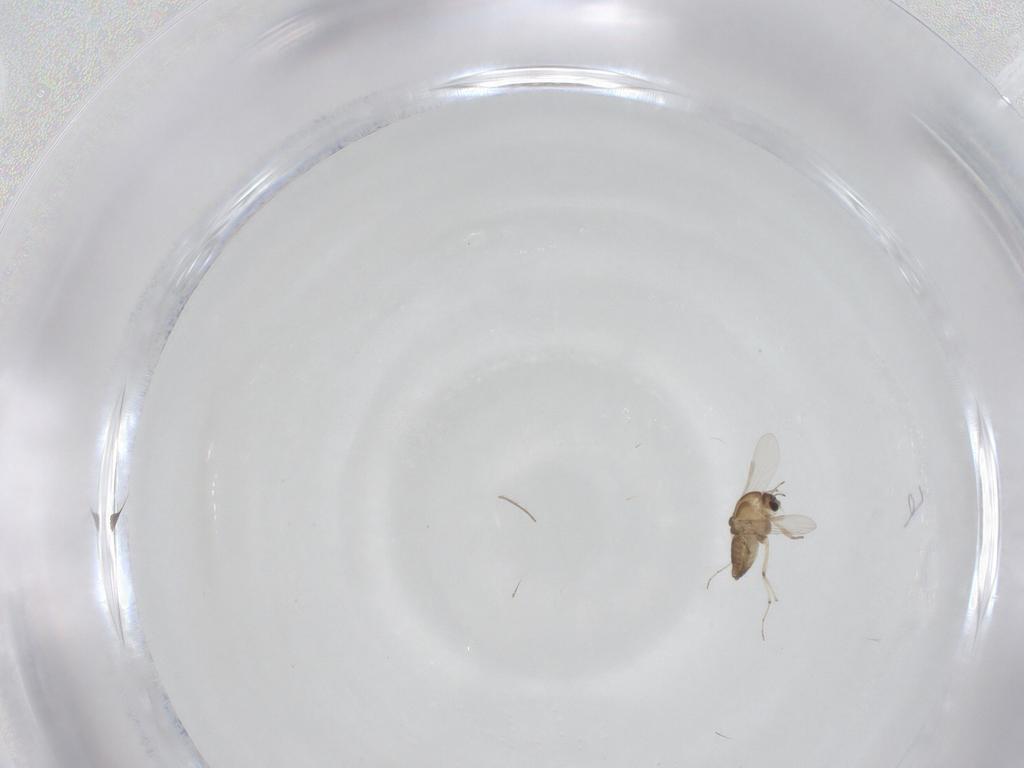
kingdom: Animalia
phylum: Arthropoda
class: Insecta
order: Diptera
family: Chironomidae
